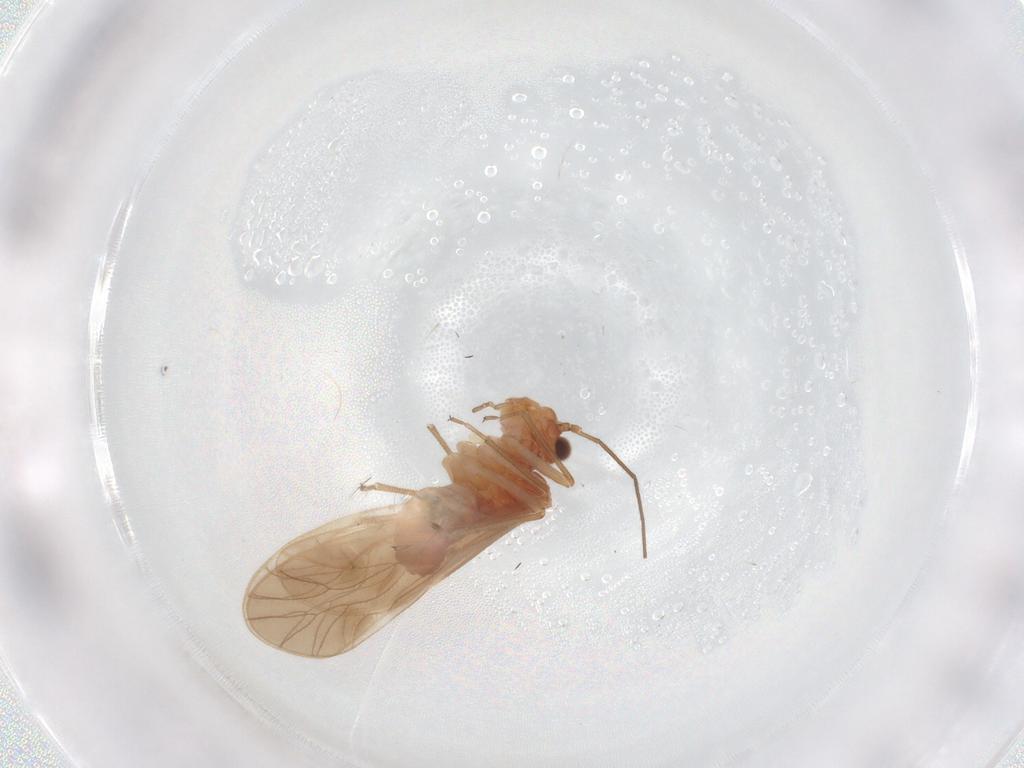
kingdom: Animalia
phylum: Arthropoda
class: Insecta
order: Psocodea
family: Caeciliusidae
